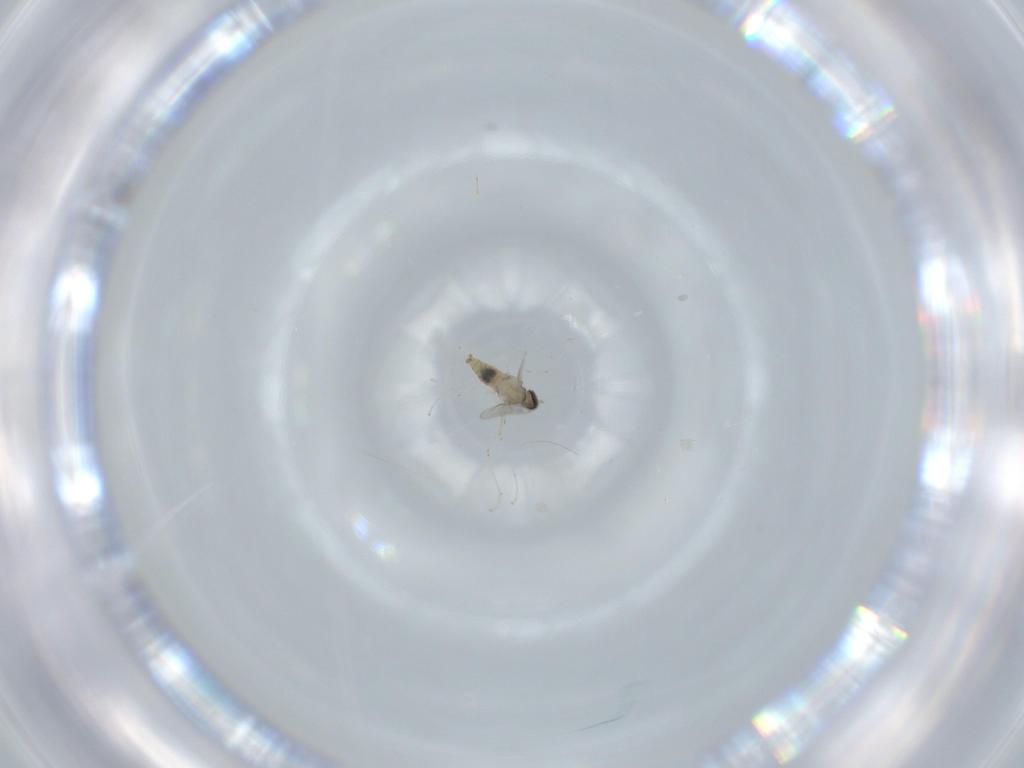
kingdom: Animalia
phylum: Arthropoda
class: Insecta
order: Diptera
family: Cecidomyiidae
